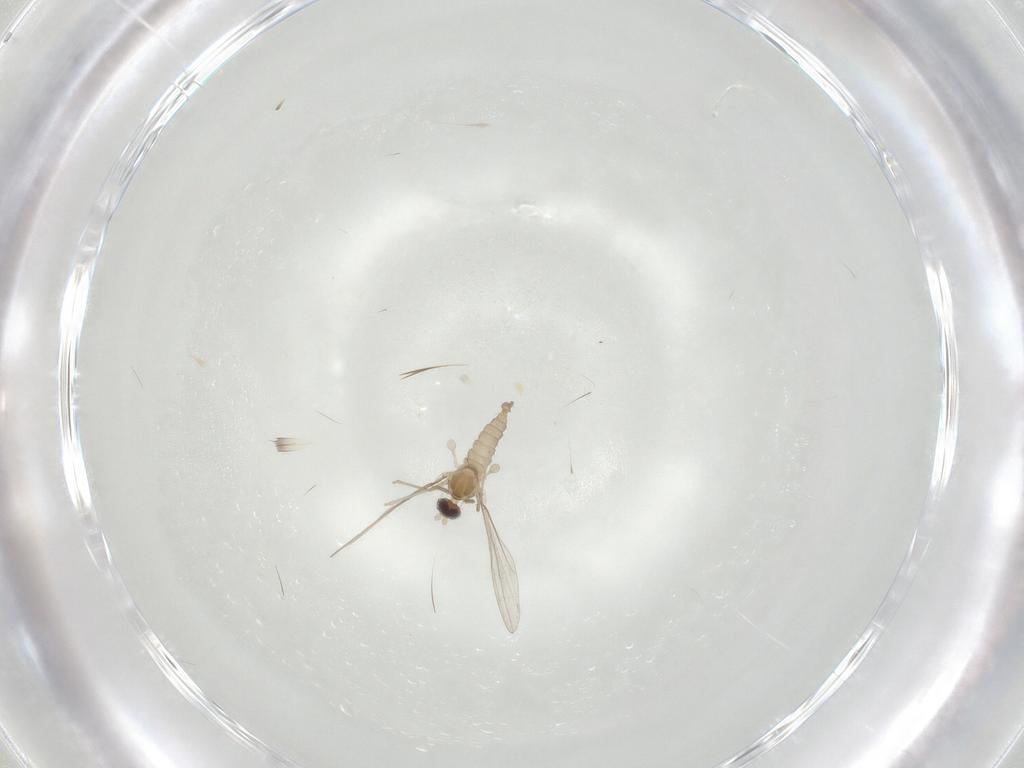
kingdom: Animalia
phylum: Arthropoda
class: Insecta
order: Diptera
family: Cecidomyiidae
